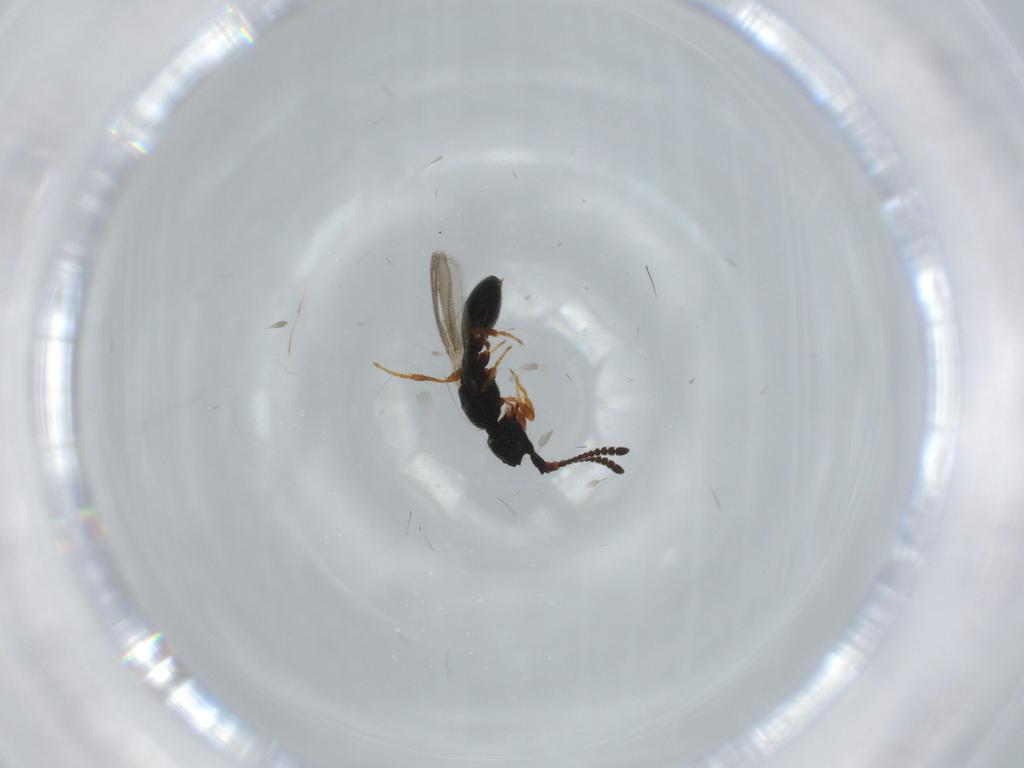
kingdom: Animalia
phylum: Arthropoda
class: Insecta
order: Hymenoptera
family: Diapriidae
